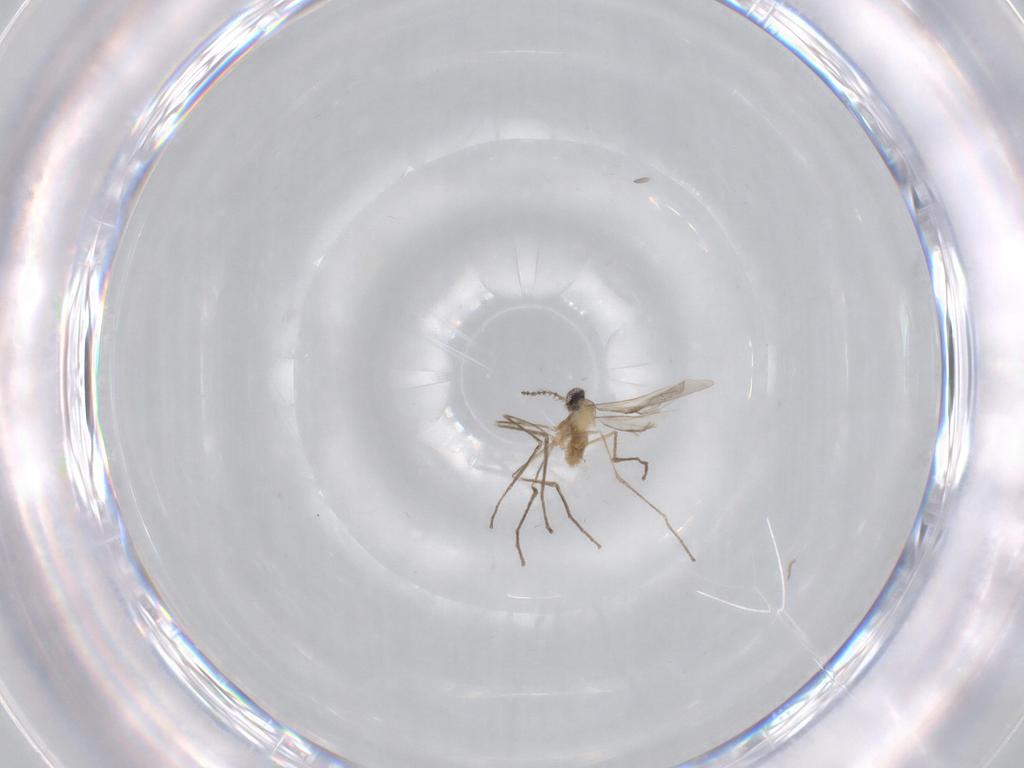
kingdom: Animalia
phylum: Arthropoda
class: Insecta
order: Diptera
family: Cecidomyiidae
